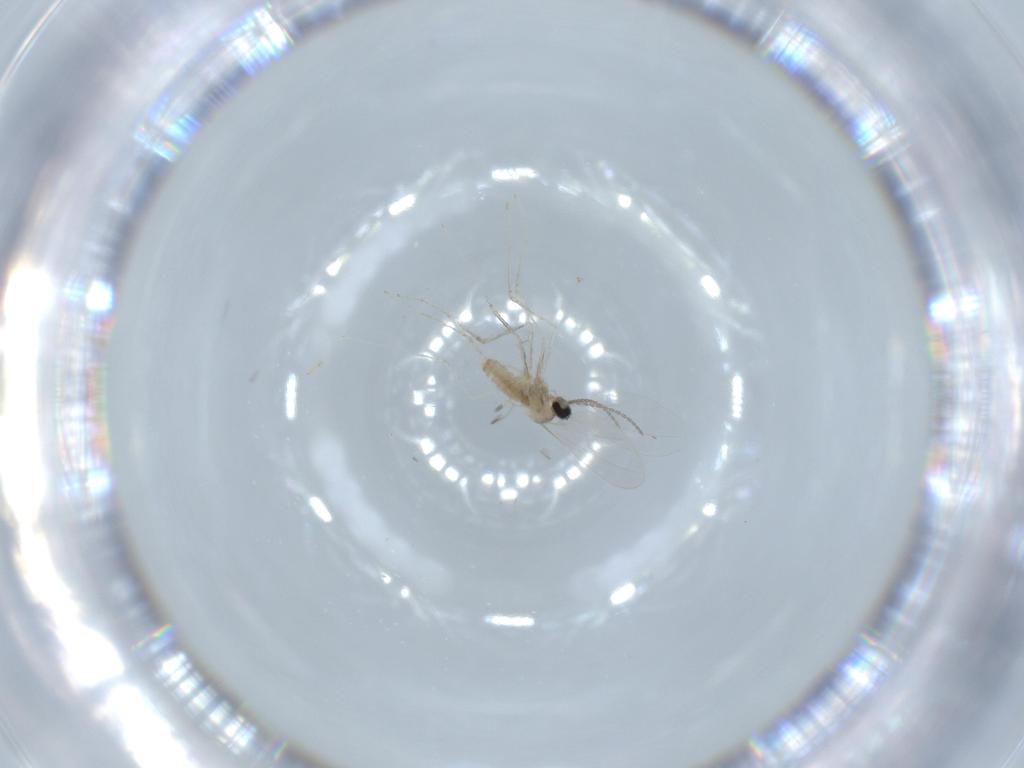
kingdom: Animalia
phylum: Arthropoda
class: Insecta
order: Diptera
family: Cecidomyiidae
